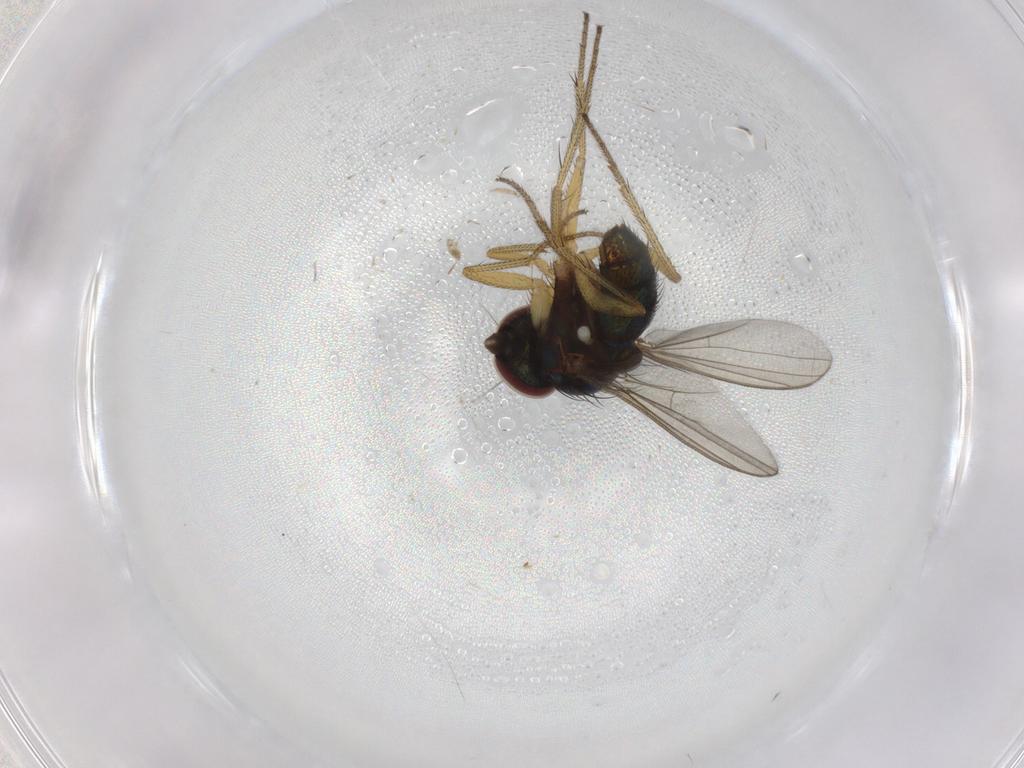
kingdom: Animalia
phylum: Arthropoda
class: Insecta
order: Diptera
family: Dolichopodidae
